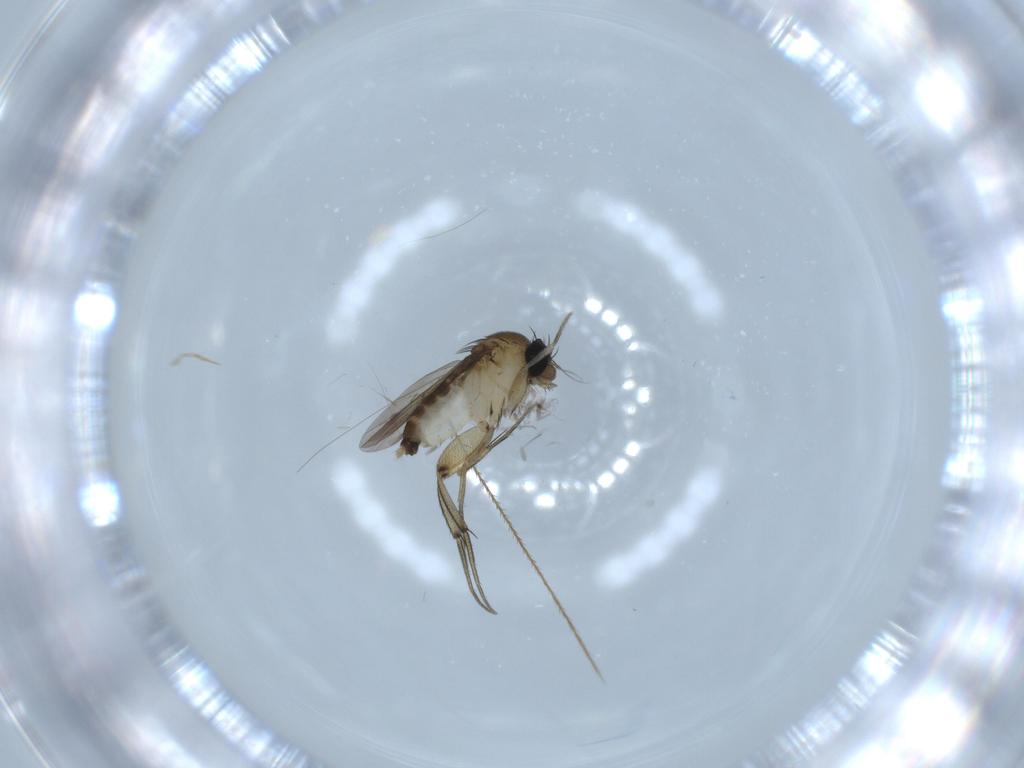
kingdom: Animalia
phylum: Arthropoda
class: Insecta
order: Diptera
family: Phoridae
